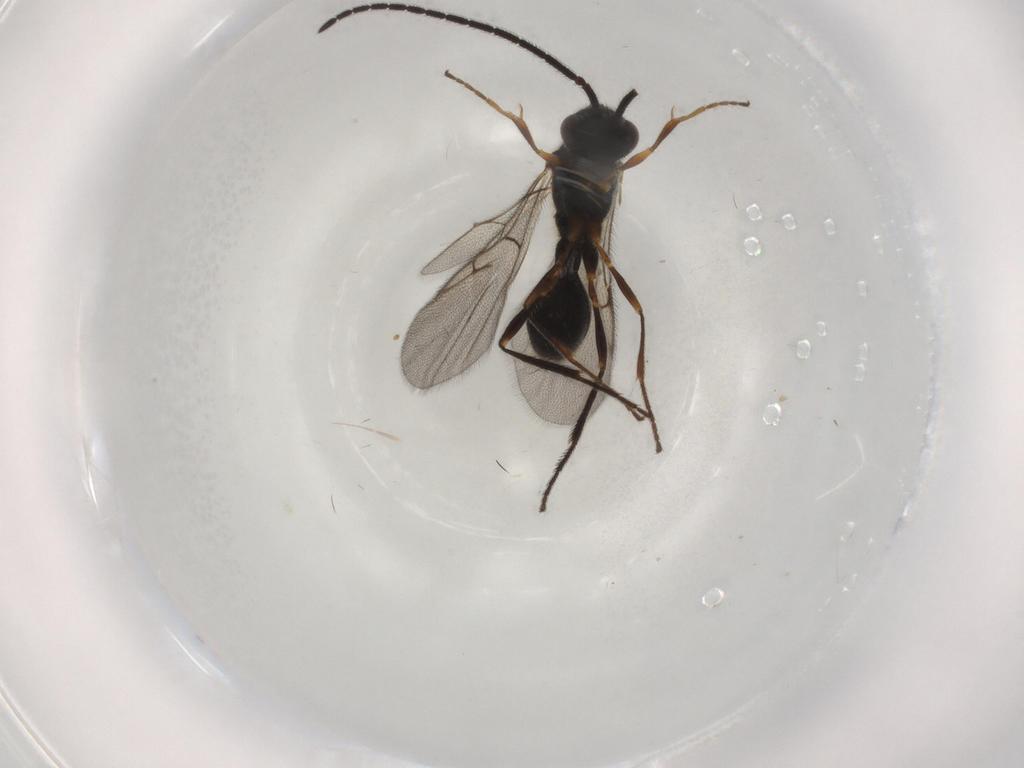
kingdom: Animalia
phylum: Arthropoda
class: Insecta
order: Hymenoptera
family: Diapriidae
